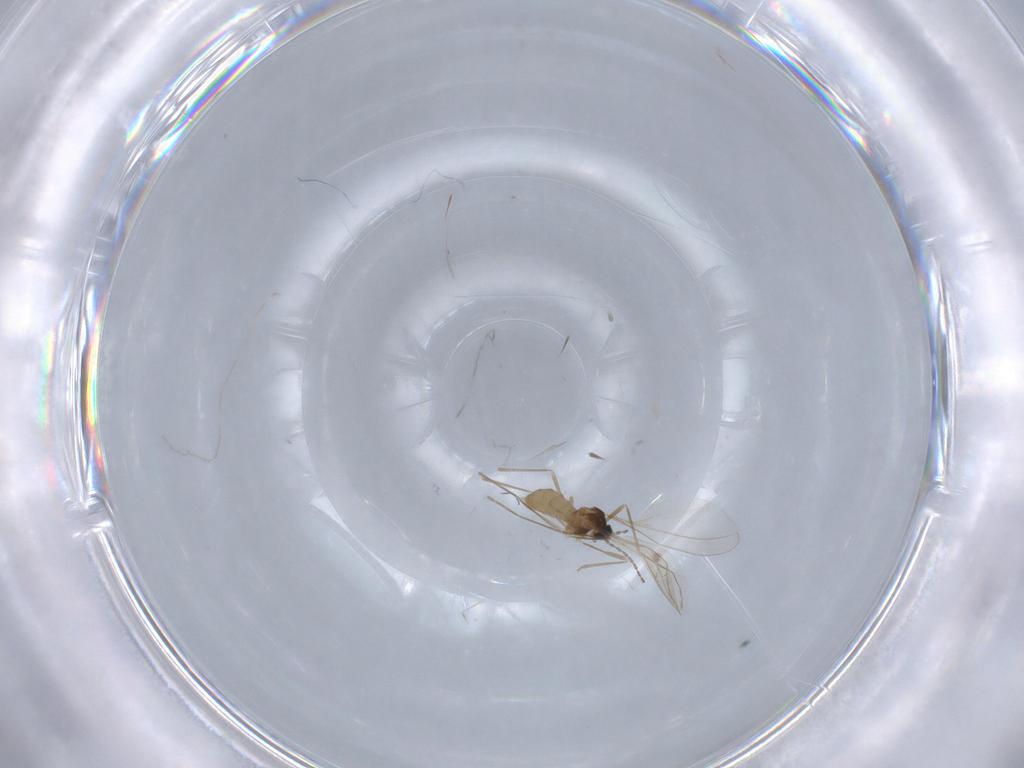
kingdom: Animalia
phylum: Arthropoda
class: Insecta
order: Diptera
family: Cecidomyiidae
